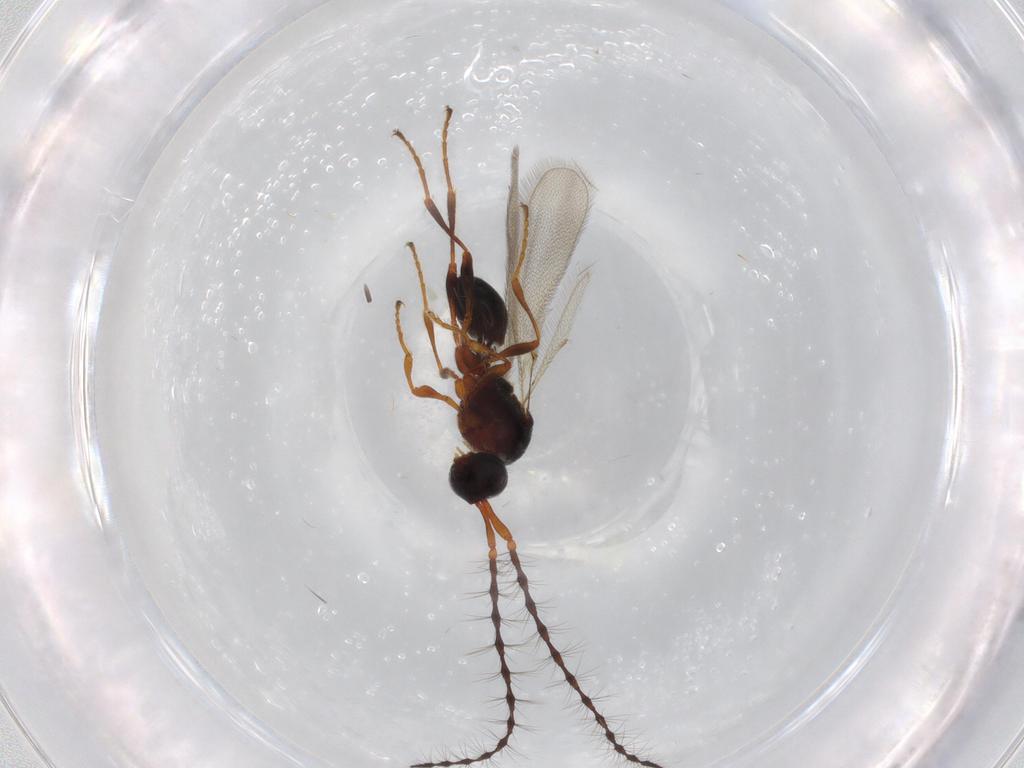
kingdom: Animalia
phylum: Arthropoda
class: Insecta
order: Hymenoptera
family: Diapriidae
